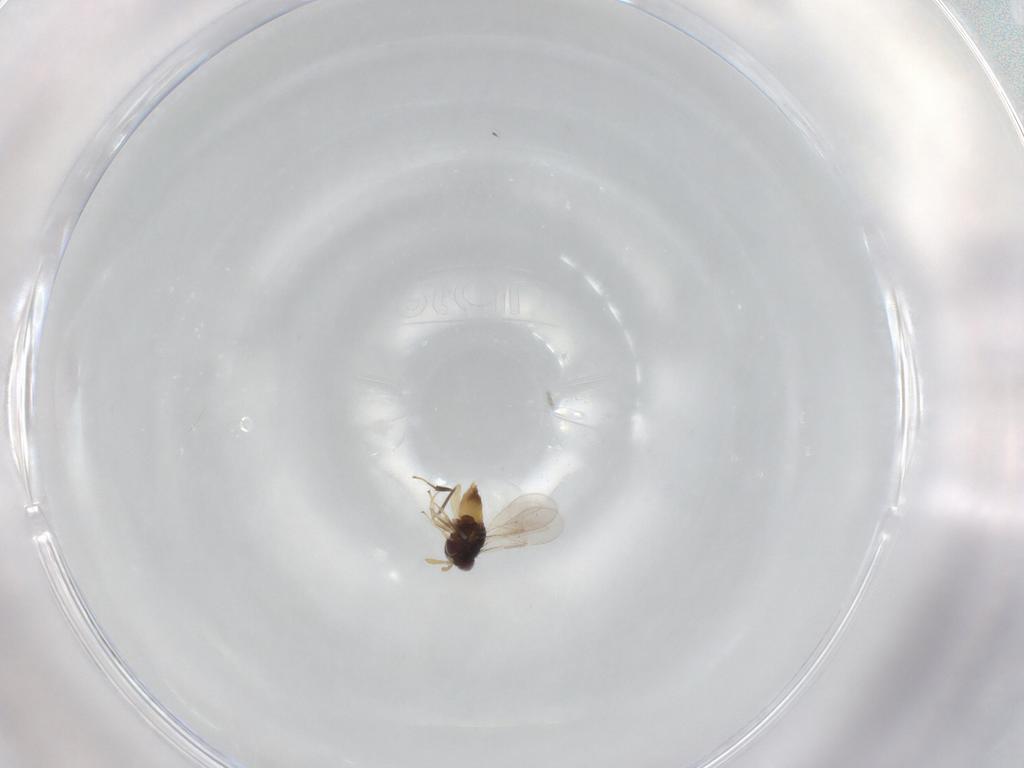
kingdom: Animalia
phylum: Arthropoda
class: Insecta
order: Hymenoptera
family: Aphelinidae
